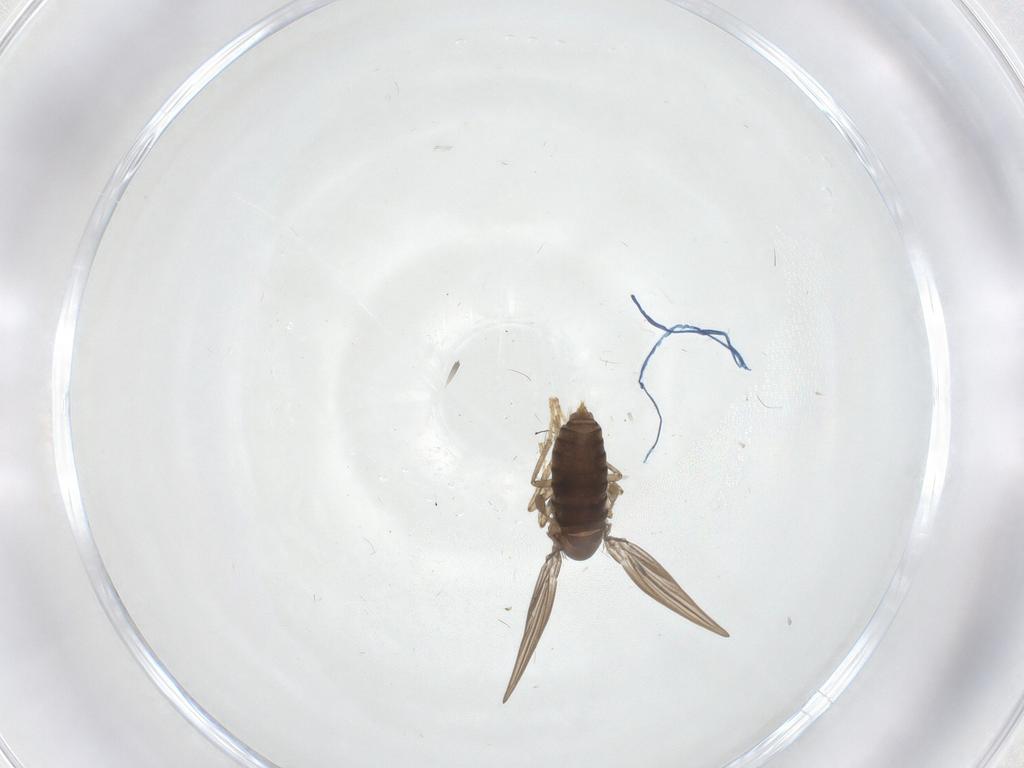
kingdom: Animalia
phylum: Arthropoda
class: Insecta
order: Diptera
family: Psychodidae
